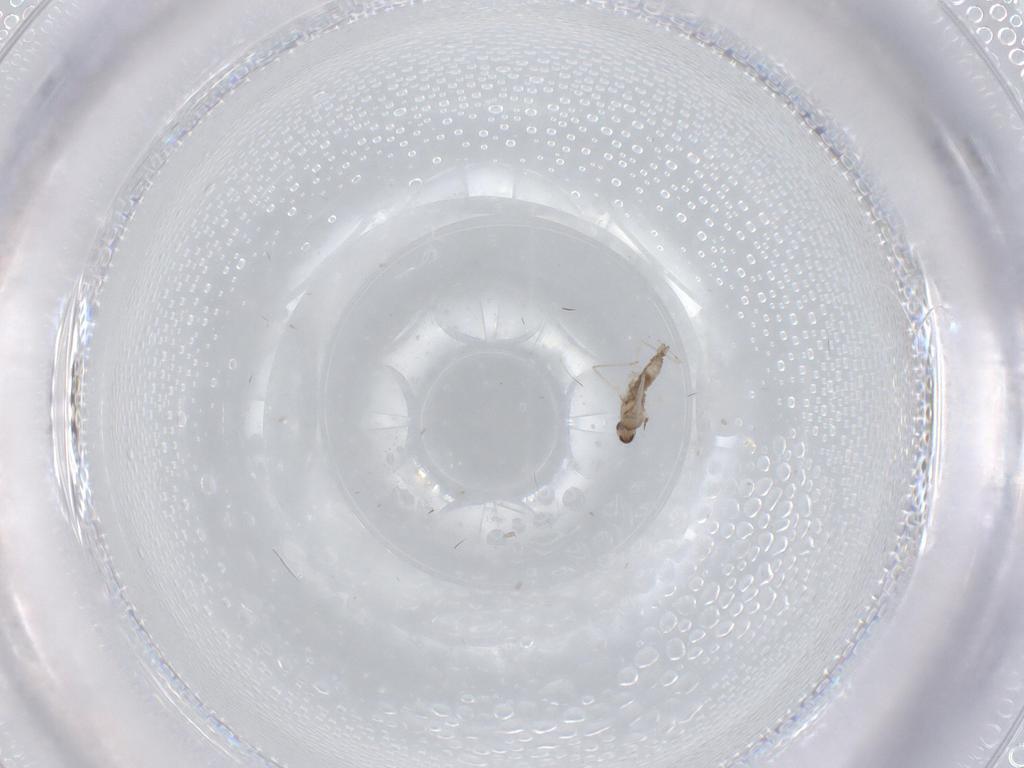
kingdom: Animalia
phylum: Arthropoda
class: Insecta
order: Diptera
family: Cecidomyiidae
